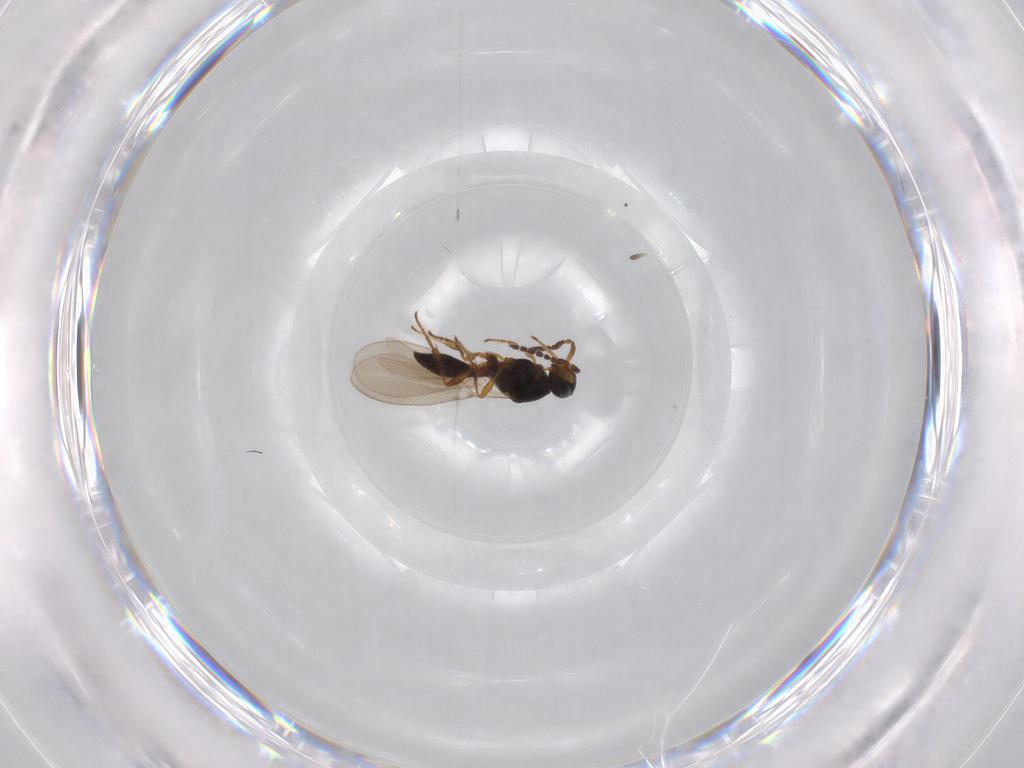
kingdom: Animalia
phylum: Arthropoda
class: Insecta
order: Hymenoptera
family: Platygastridae
